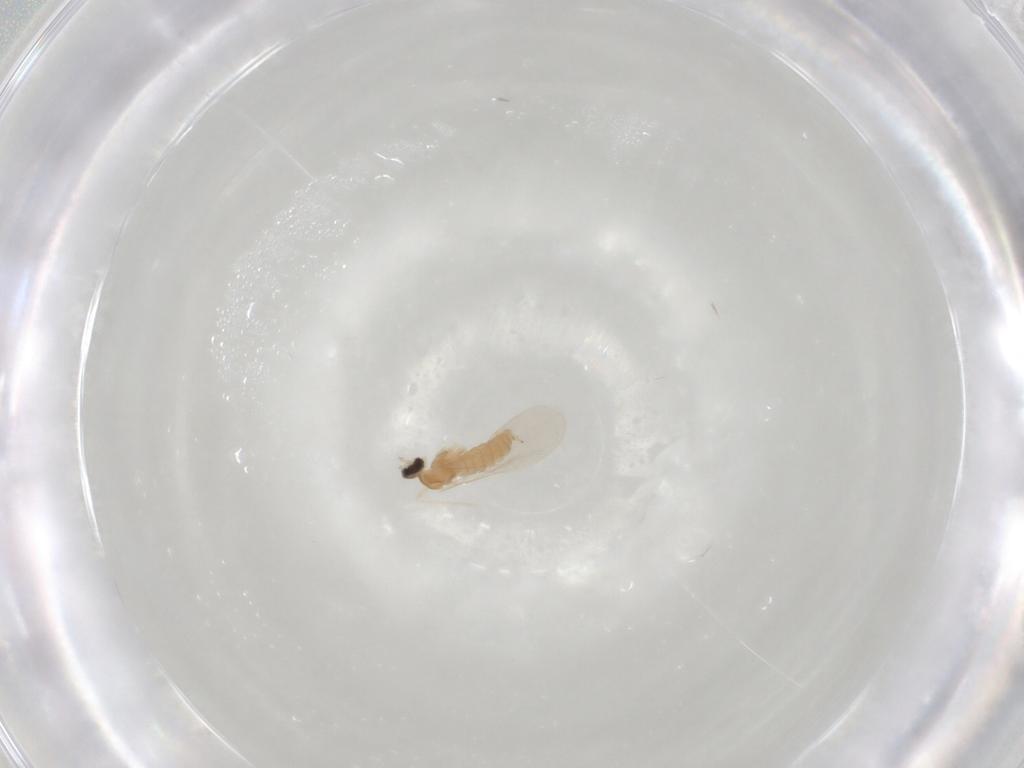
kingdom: Animalia
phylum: Arthropoda
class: Insecta
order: Diptera
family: Cecidomyiidae
